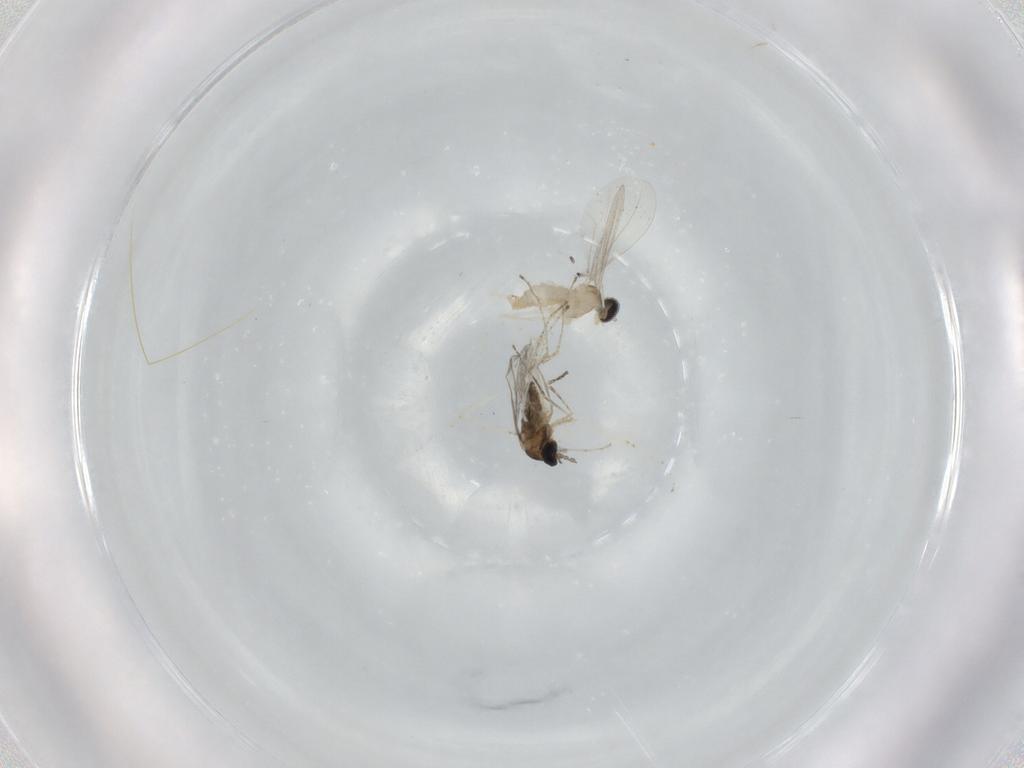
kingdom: Animalia
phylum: Arthropoda
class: Insecta
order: Diptera
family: Cecidomyiidae
